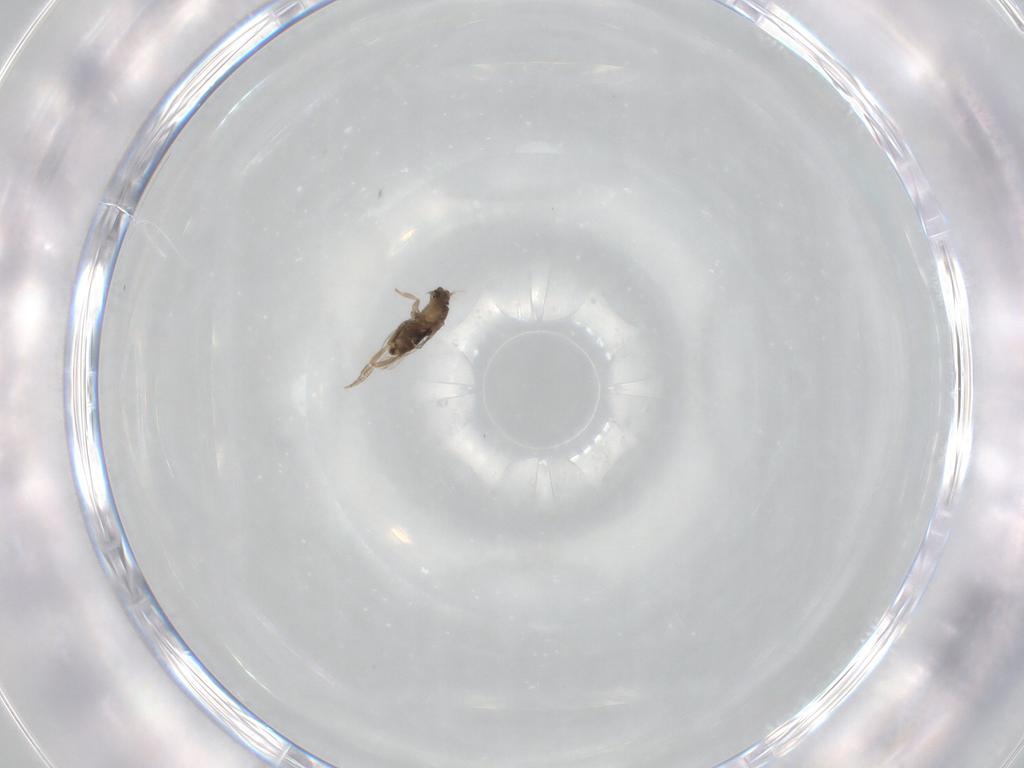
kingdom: Animalia
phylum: Arthropoda
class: Insecta
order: Diptera
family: Phoridae
